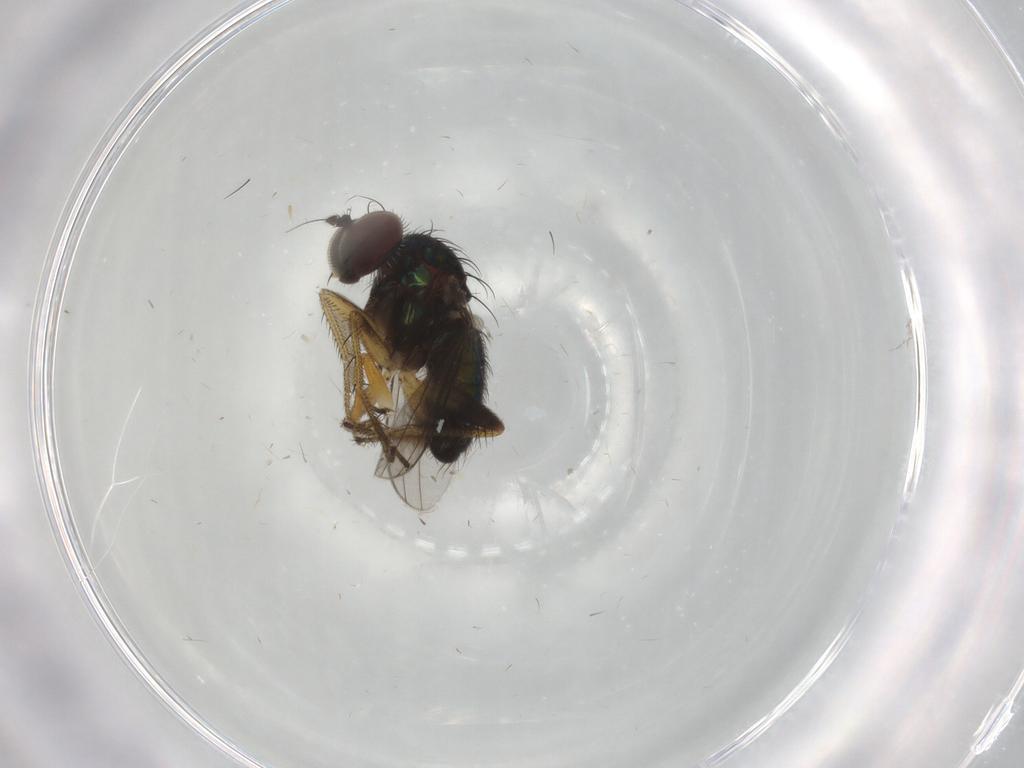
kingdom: Animalia
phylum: Arthropoda
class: Insecta
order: Diptera
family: Dolichopodidae
